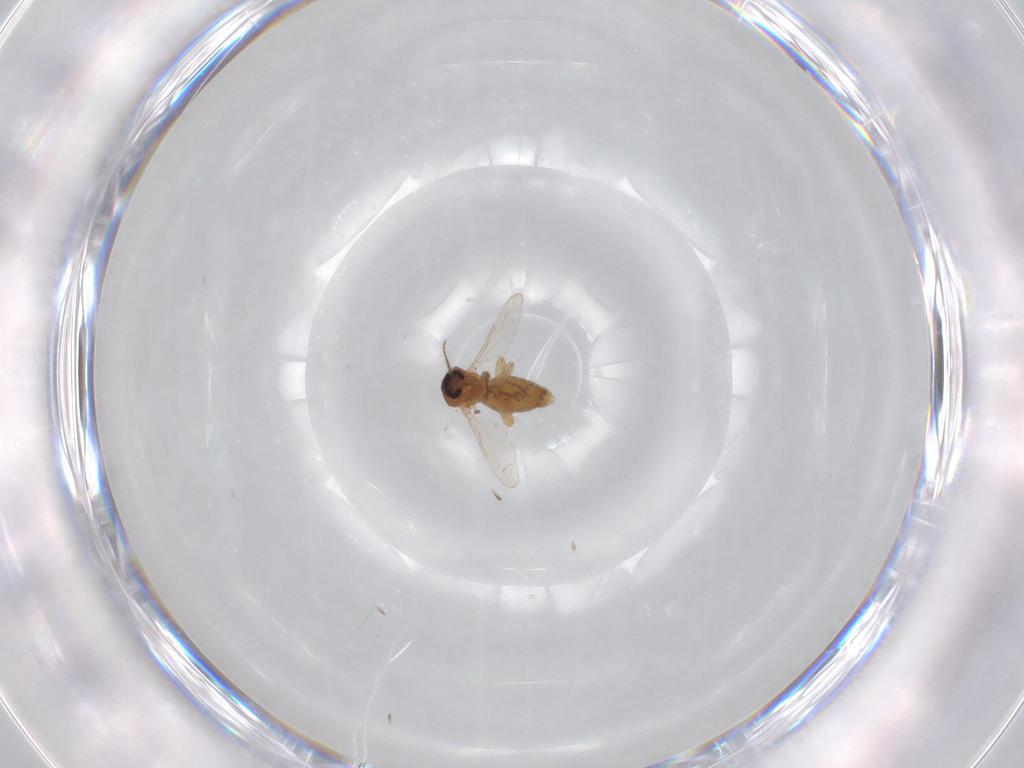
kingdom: Animalia
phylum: Arthropoda
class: Insecta
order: Diptera
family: Ceratopogonidae
